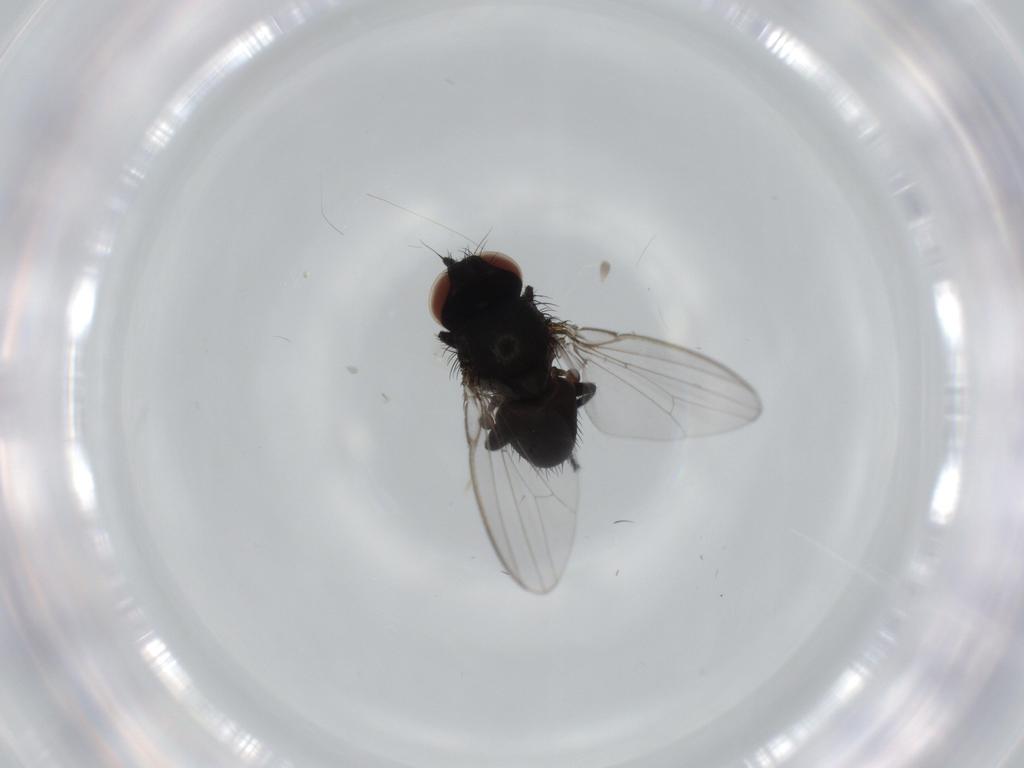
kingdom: Animalia
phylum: Arthropoda
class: Insecta
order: Diptera
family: Milichiidae
